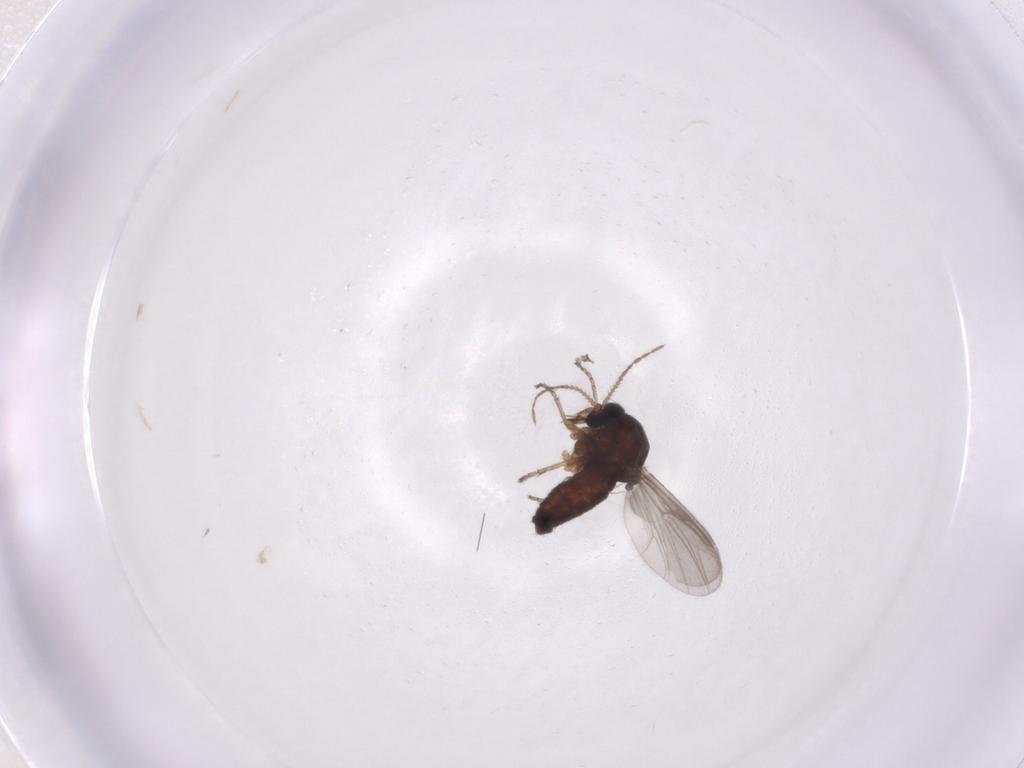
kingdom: Animalia
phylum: Arthropoda
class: Insecta
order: Diptera
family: Ceratopogonidae
